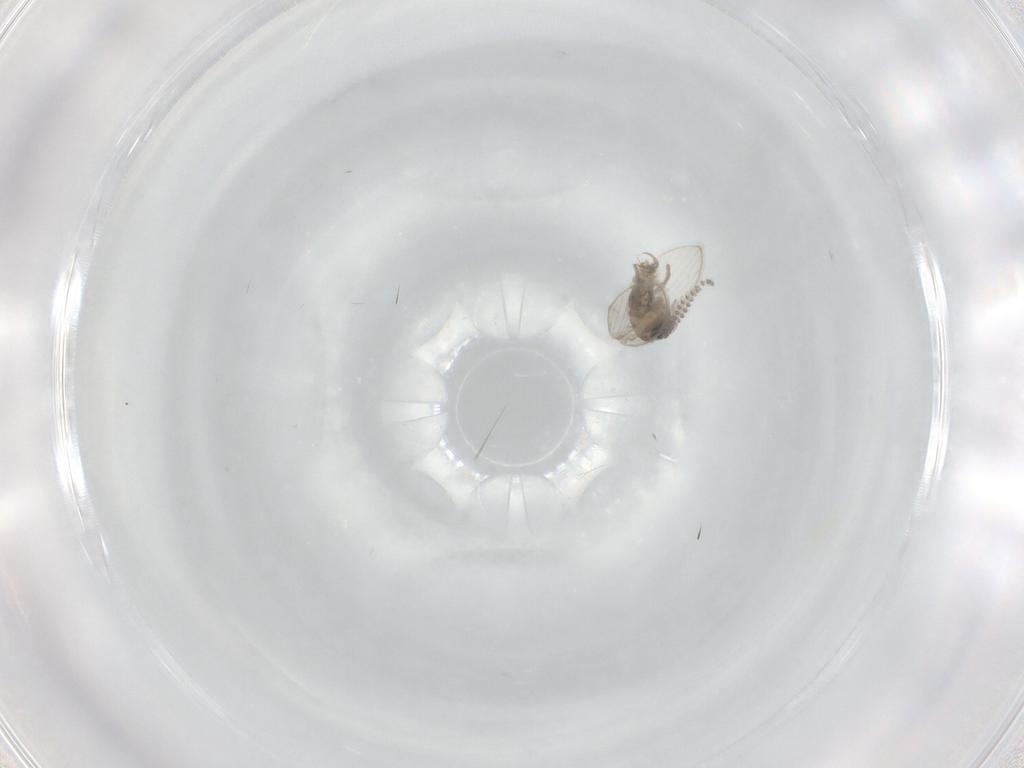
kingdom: Animalia
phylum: Arthropoda
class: Insecta
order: Diptera
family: Psychodidae
